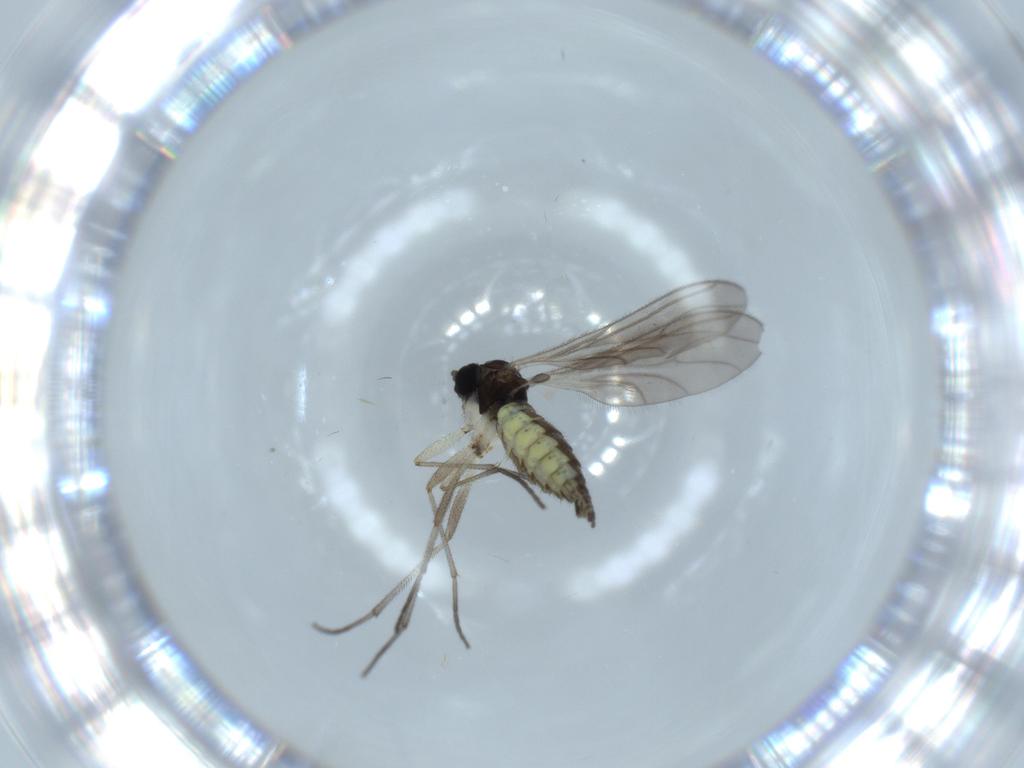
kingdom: Animalia
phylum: Arthropoda
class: Insecta
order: Diptera
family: Sciaridae
